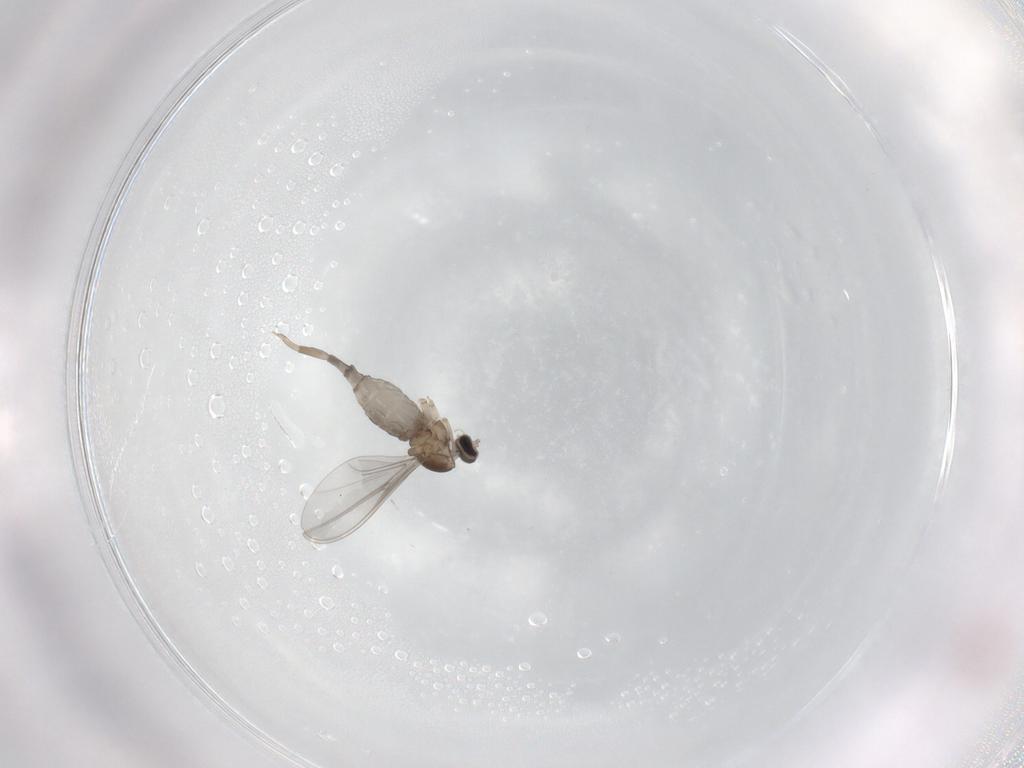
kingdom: Animalia
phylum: Arthropoda
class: Insecta
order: Diptera
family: Cecidomyiidae
